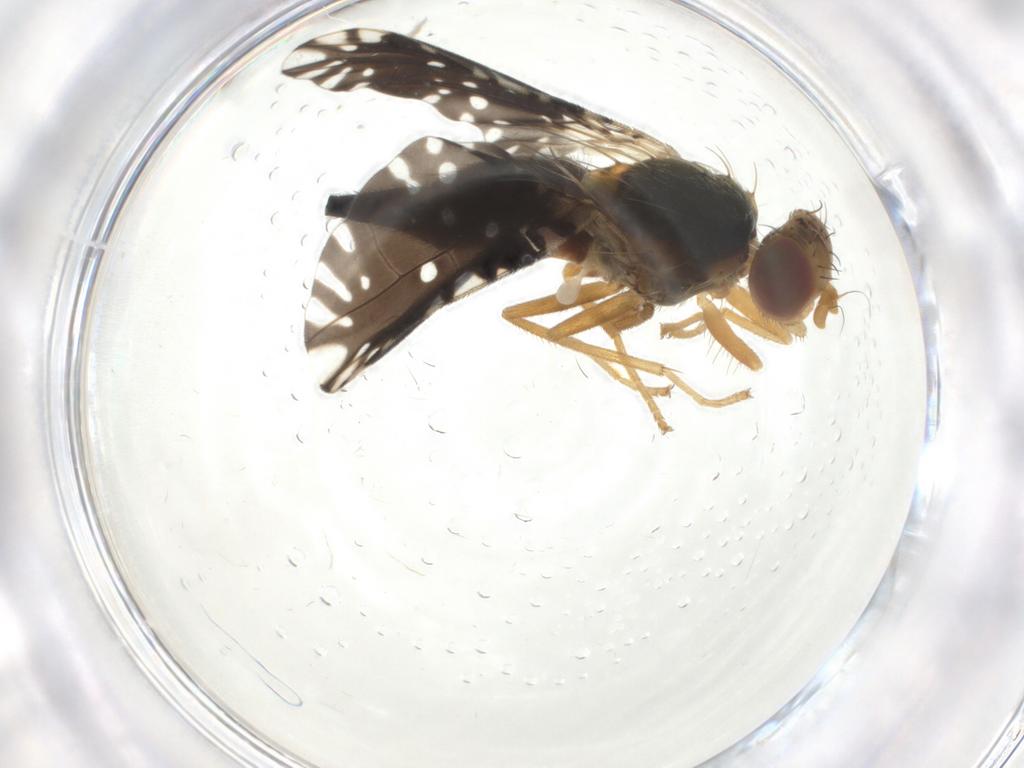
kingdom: Animalia
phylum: Arthropoda
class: Insecta
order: Diptera
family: Tephritidae
